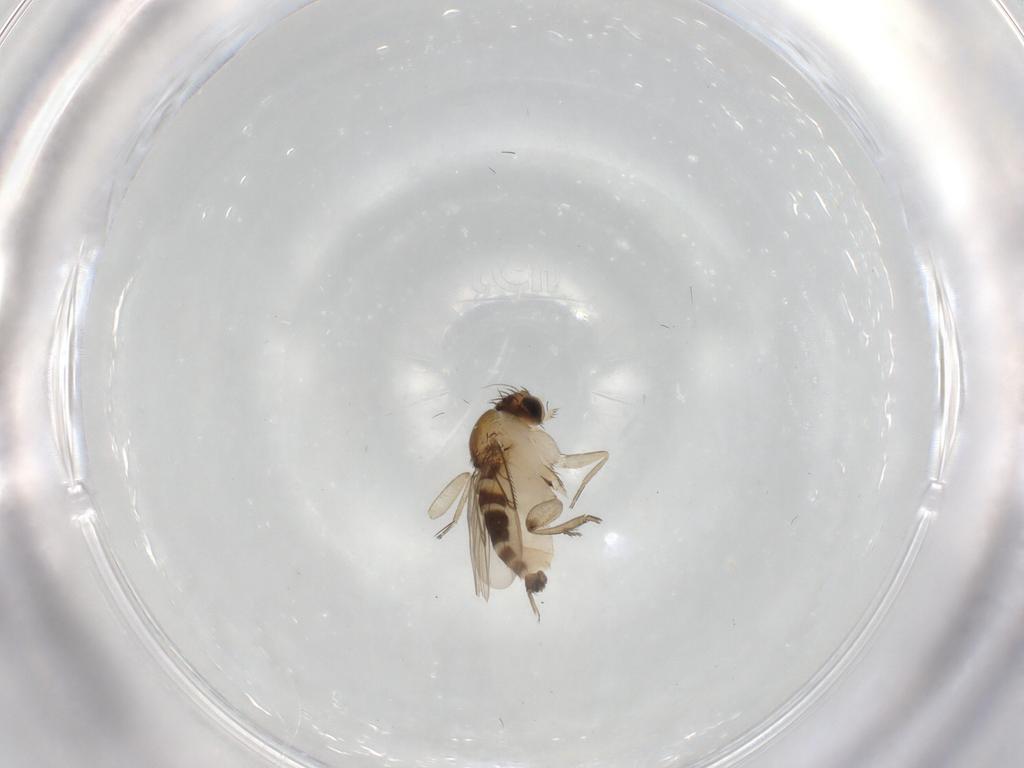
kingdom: Animalia
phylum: Arthropoda
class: Insecta
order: Diptera
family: Phoridae
